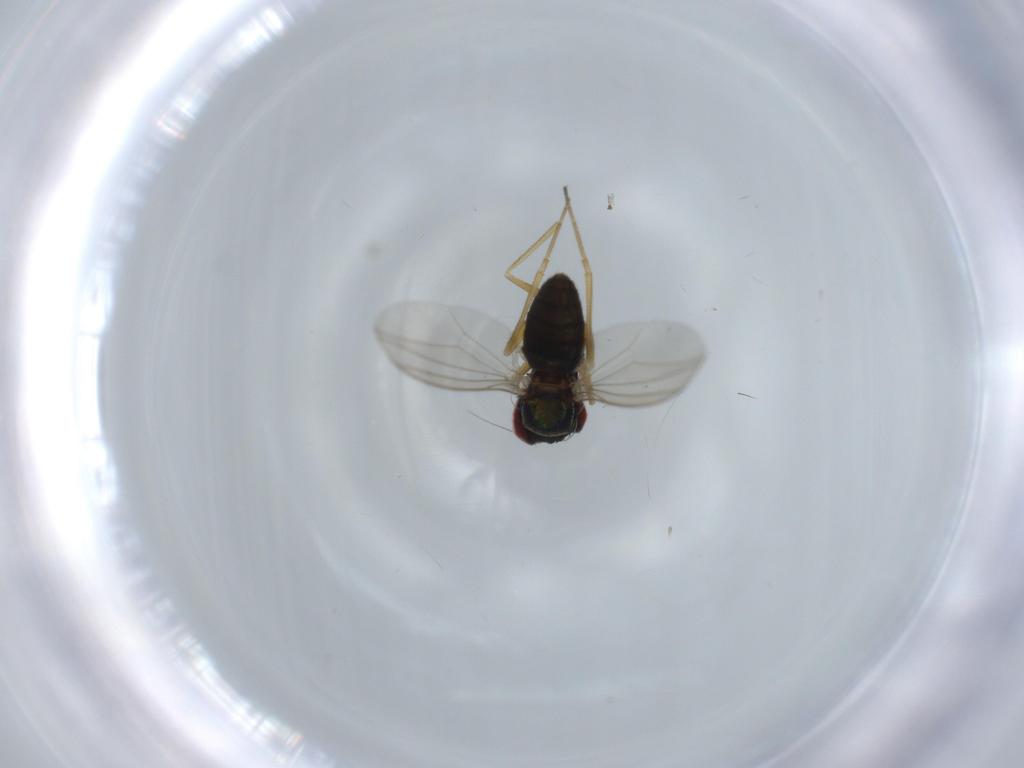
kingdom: Animalia
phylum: Arthropoda
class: Insecta
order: Diptera
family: Dolichopodidae
